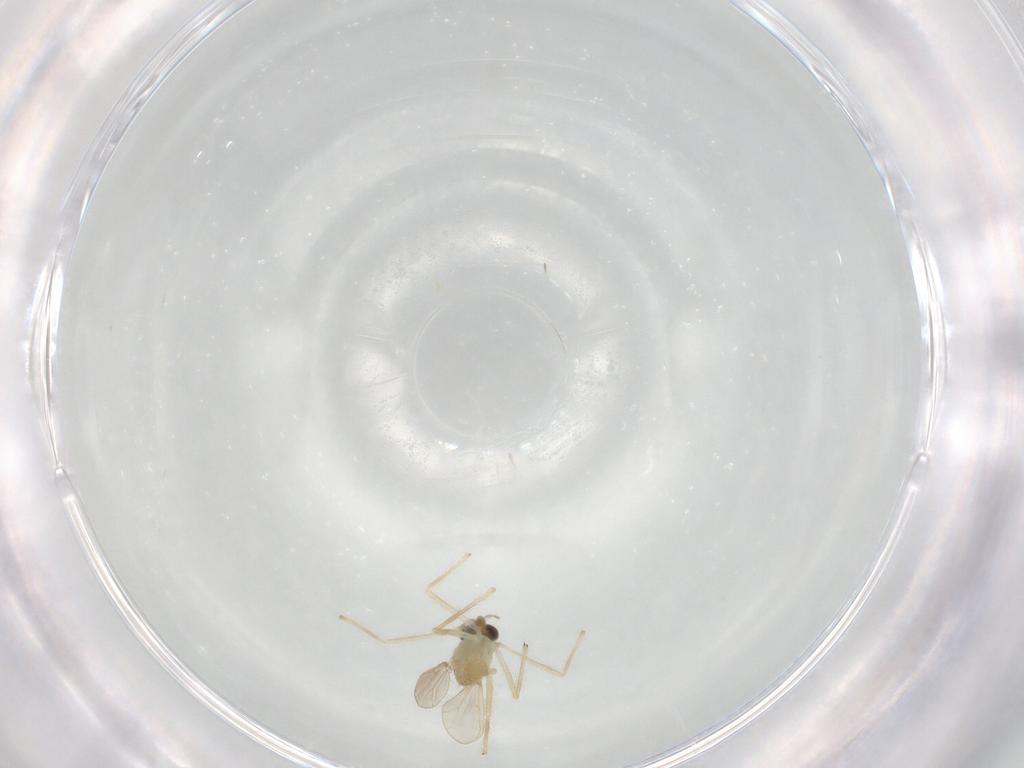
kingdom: Animalia
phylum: Arthropoda
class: Insecta
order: Diptera
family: Chironomidae
